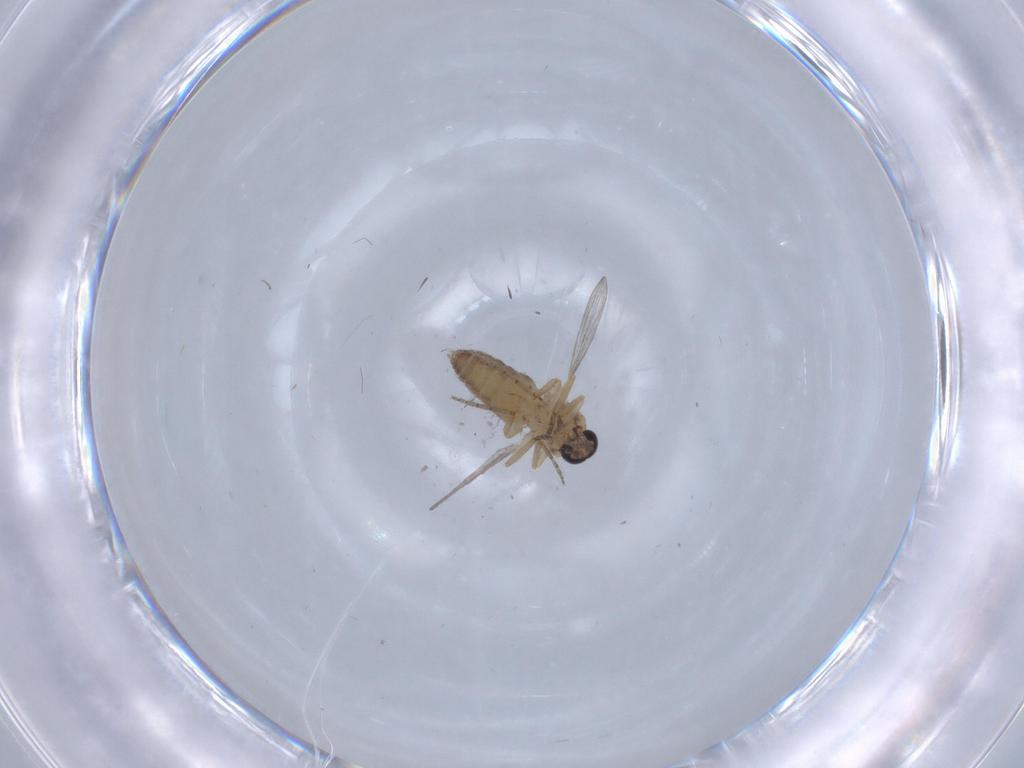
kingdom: Animalia
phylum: Arthropoda
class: Insecta
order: Diptera
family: Ceratopogonidae
